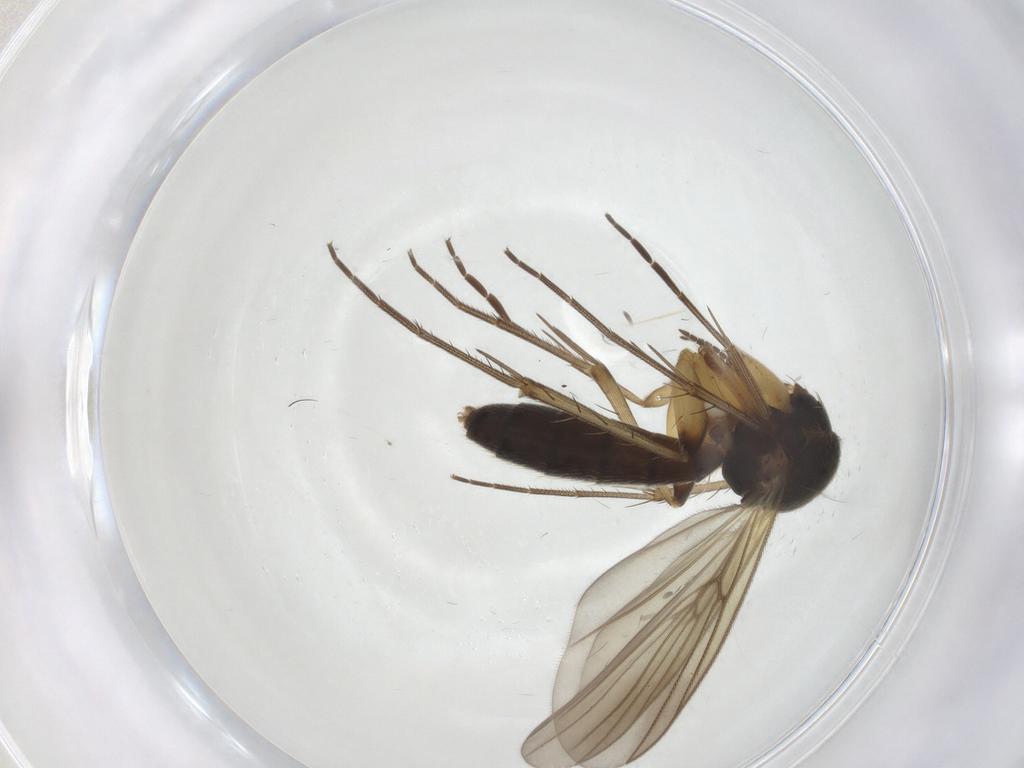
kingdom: Animalia
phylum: Arthropoda
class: Insecta
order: Diptera
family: Mycetophilidae
